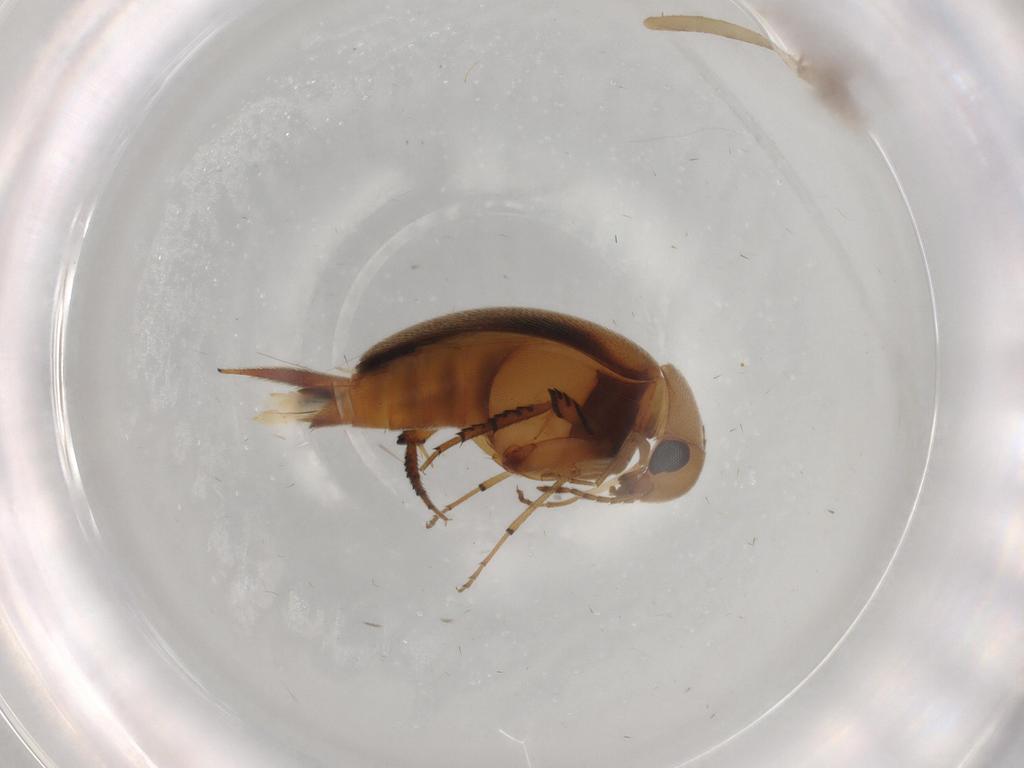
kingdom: Animalia
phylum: Arthropoda
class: Insecta
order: Coleoptera
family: Mordellidae
